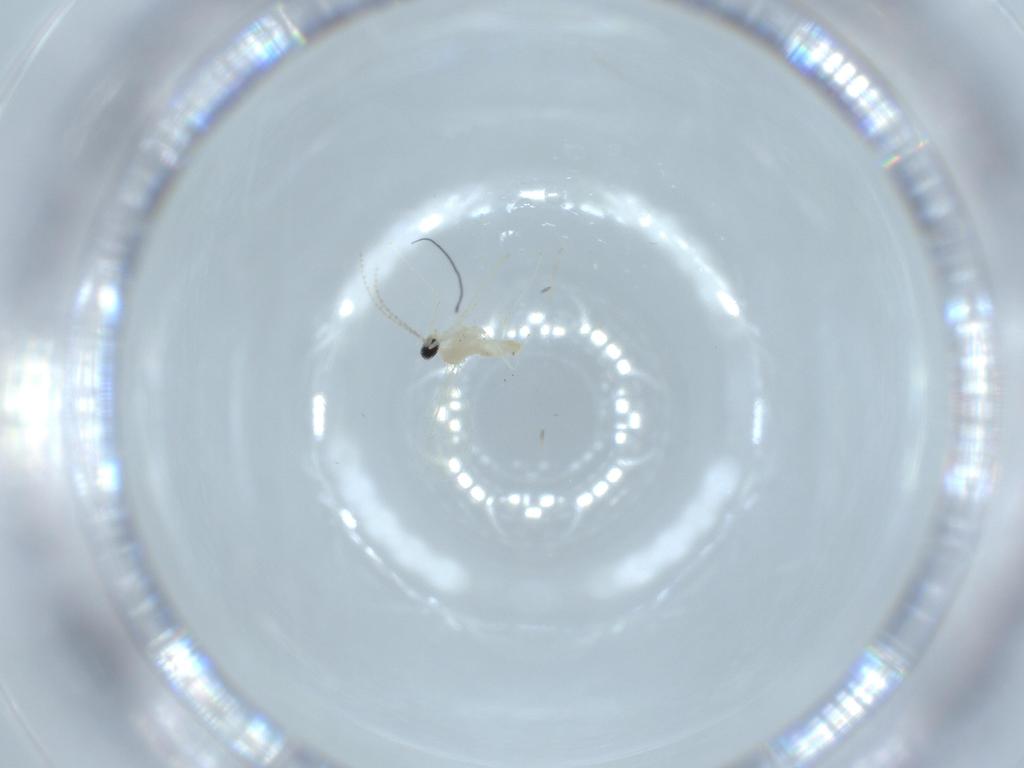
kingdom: Animalia
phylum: Arthropoda
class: Insecta
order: Diptera
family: Cecidomyiidae
